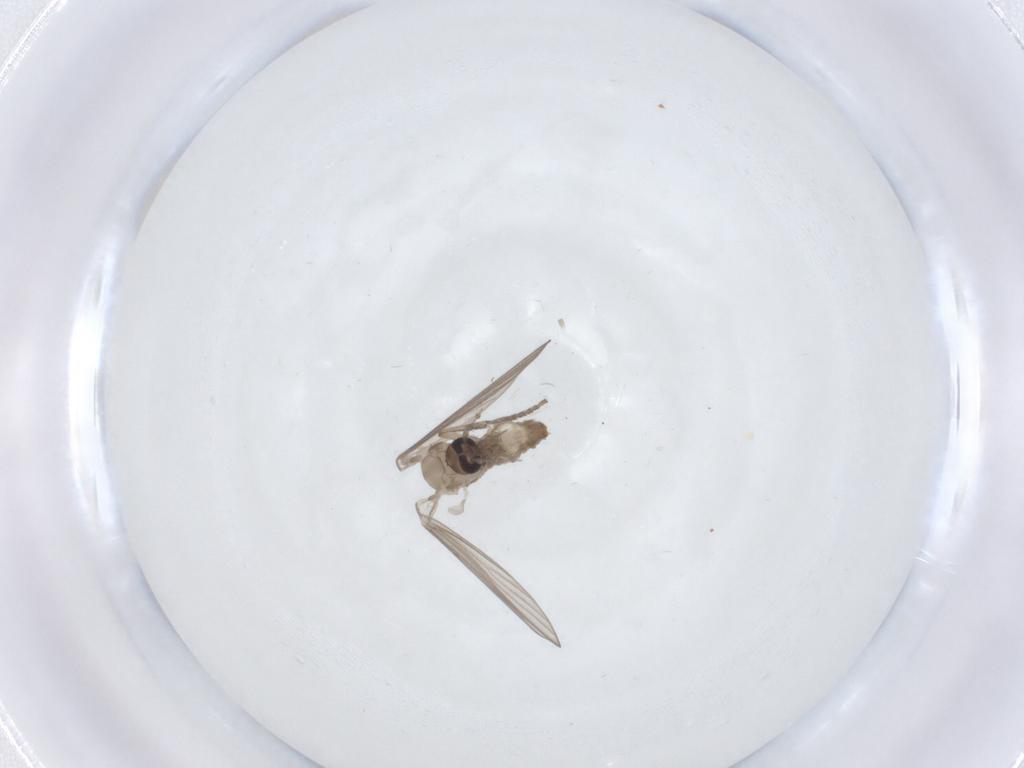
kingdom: Animalia
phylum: Arthropoda
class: Insecta
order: Diptera
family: Psychodidae
